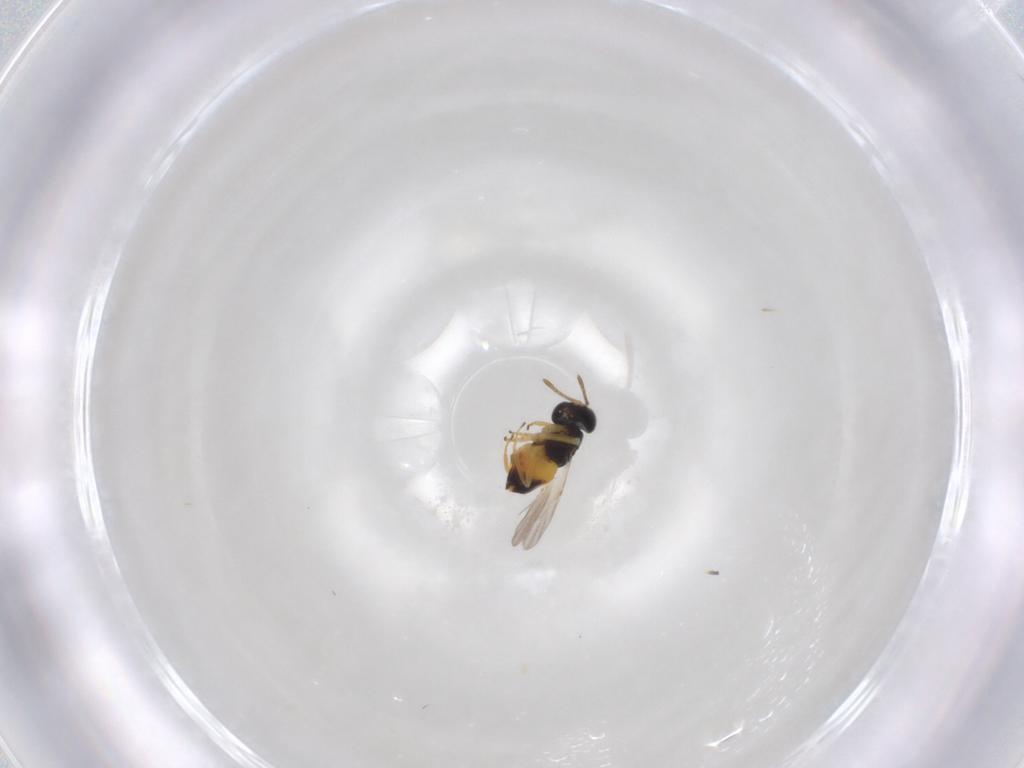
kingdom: Animalia
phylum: Arthropoda
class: Insecta
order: Hymenoptera
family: Encyrtidae
